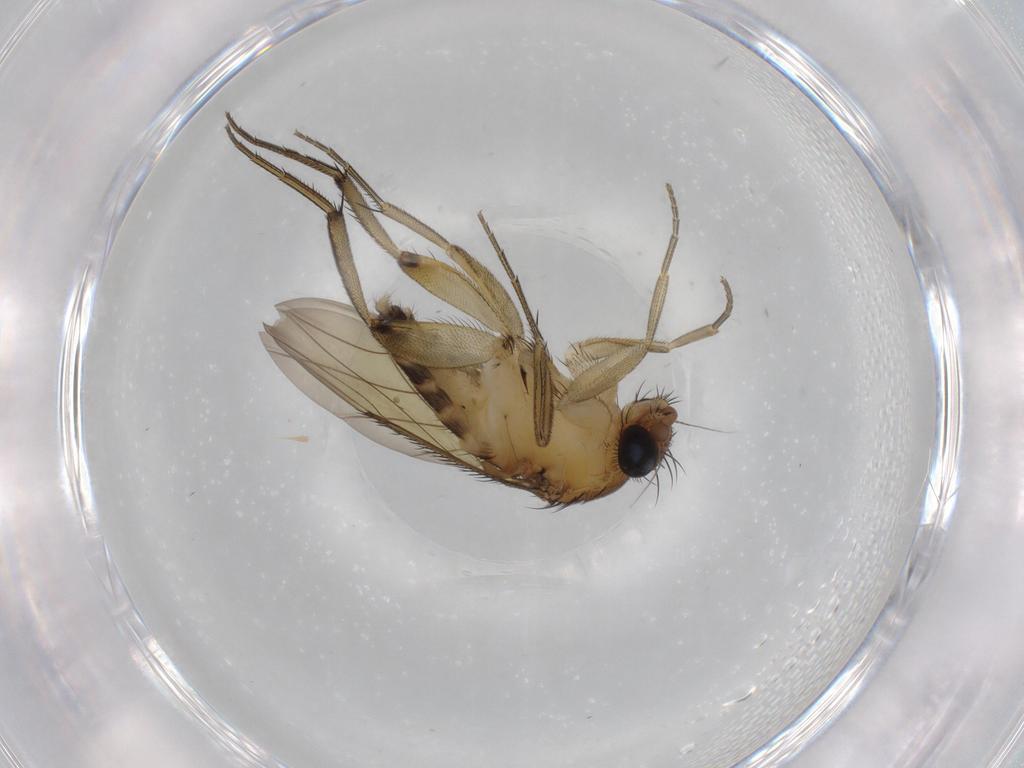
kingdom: Animalia
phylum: Arthropoda
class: Insecta
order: Diptera
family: Phoridae
